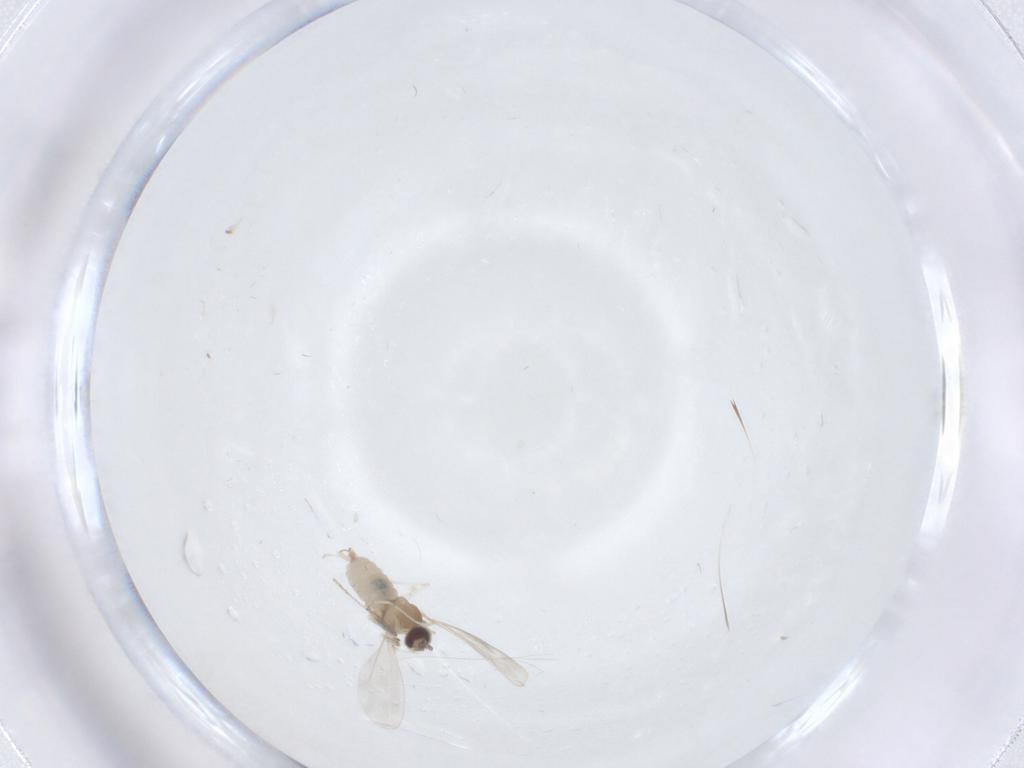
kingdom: Animalia
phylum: Arthropoda
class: Insecta
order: Diptera
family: Cecidomyiidae
